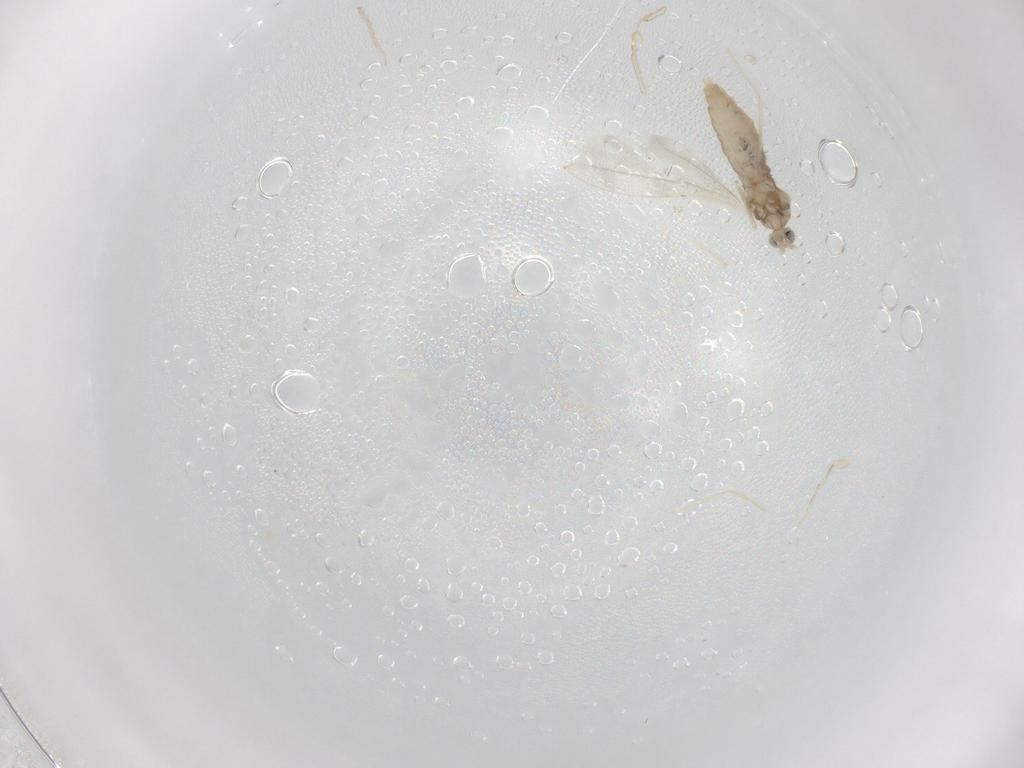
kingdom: Animalia
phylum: Arthropoda
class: Insecta
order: Diptera
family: Cecidomyiidae
